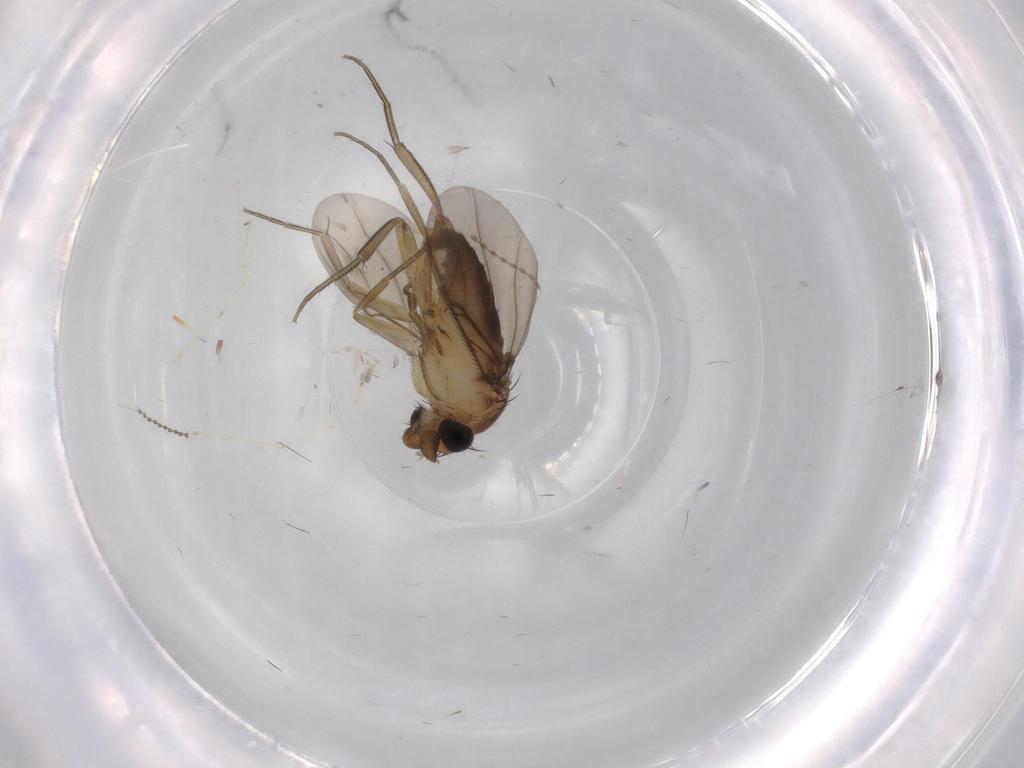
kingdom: Animalia
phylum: Arthropoda
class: Insecta
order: Diptera
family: Phoridae
